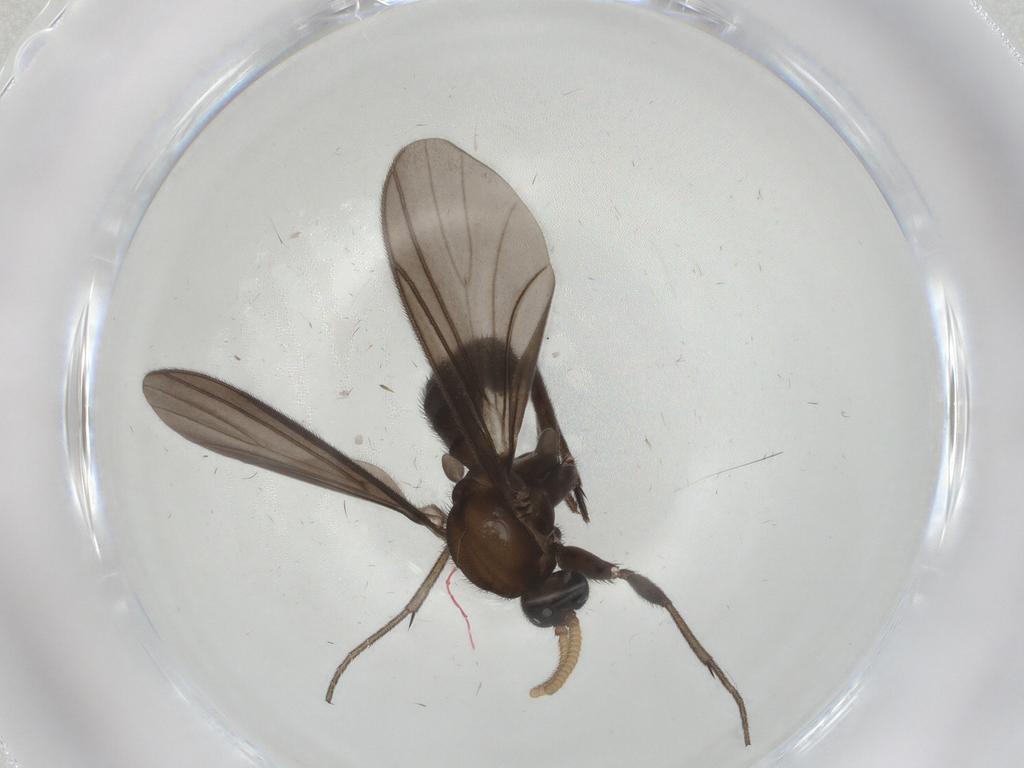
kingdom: Animalia
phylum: Arthropoda
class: Insecta
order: Diptera
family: Mycetophilidae
